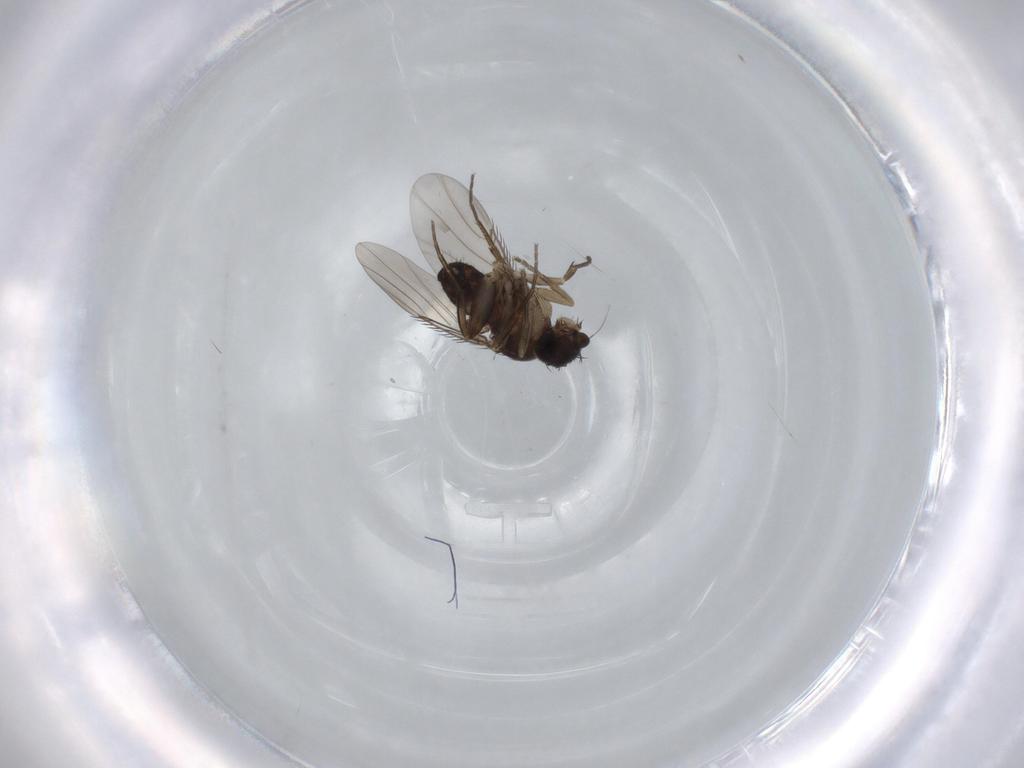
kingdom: Animalia
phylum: Arthropoda
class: Insecta
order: Diptera
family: Phoridae
